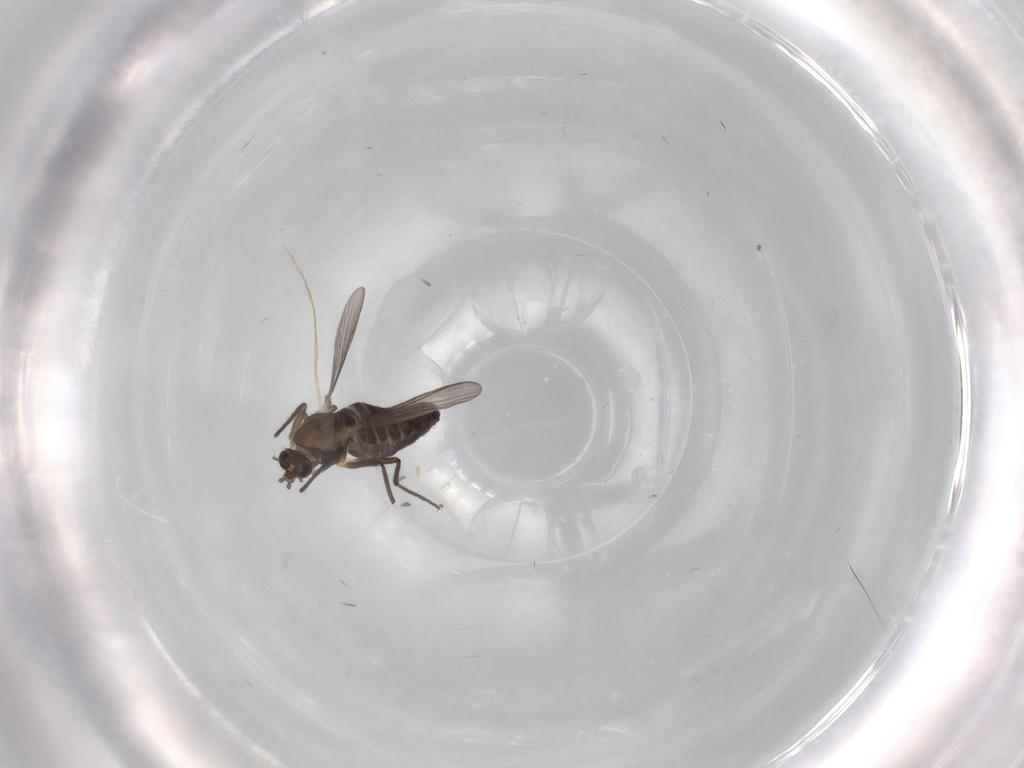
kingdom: Animalia
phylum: Arthropoda
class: Insecta
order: Diptera
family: Chironomidae
